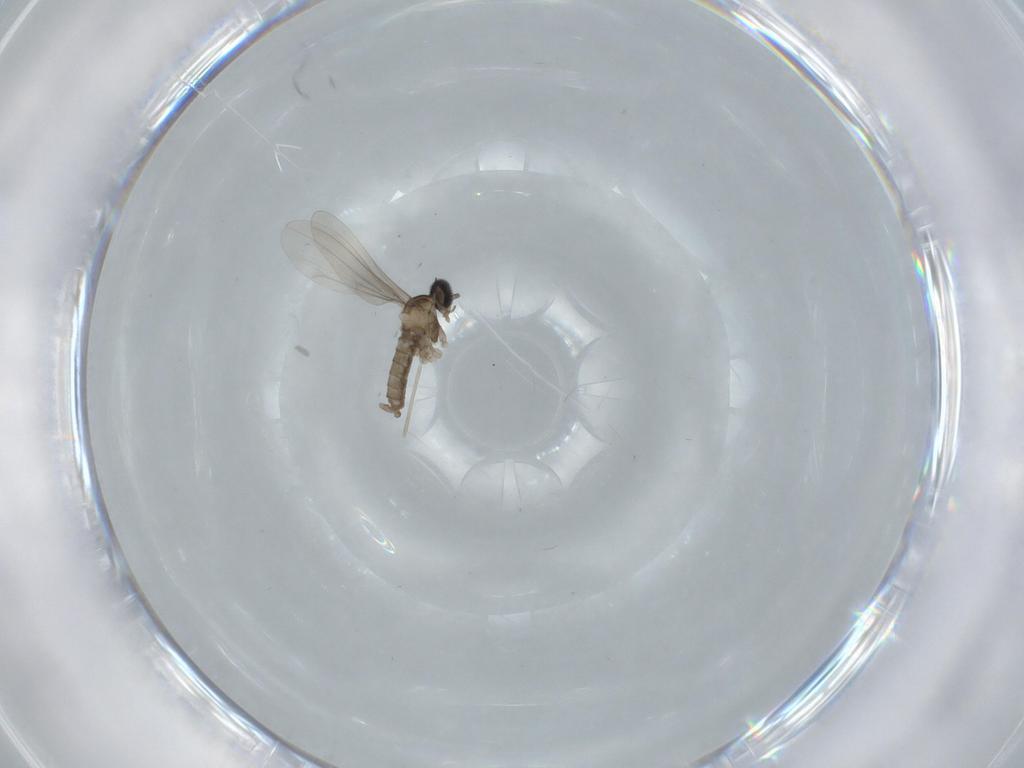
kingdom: Animalia
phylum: Arthropoda
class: Insecta
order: Diptera
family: Cecidomyiidae
